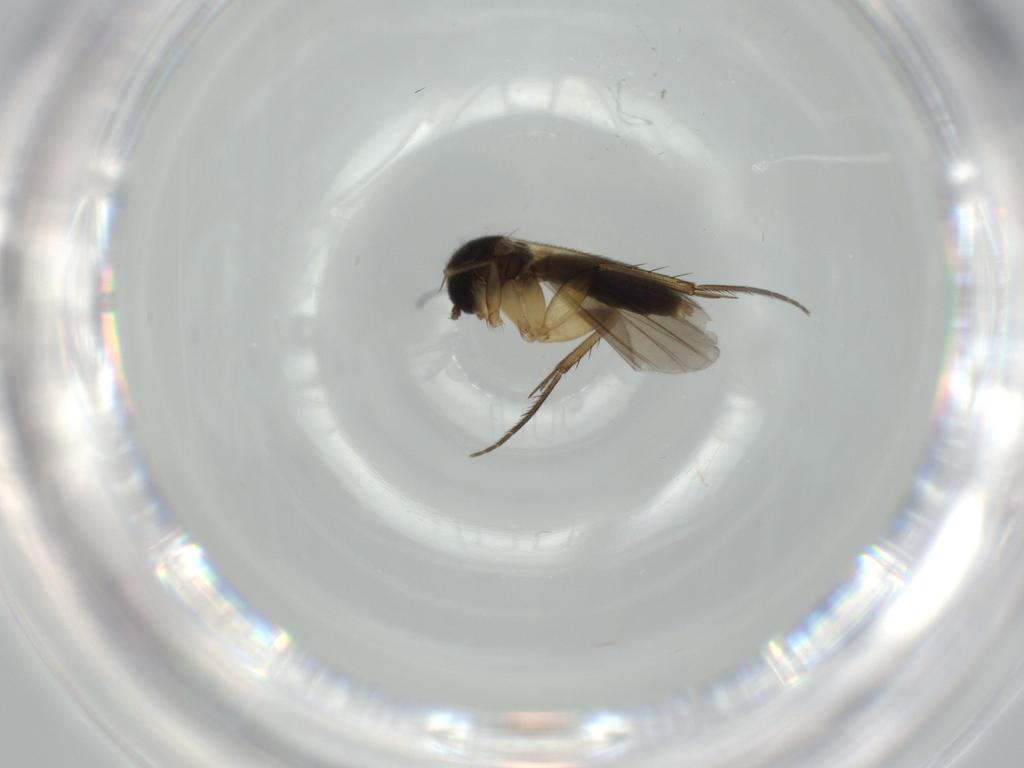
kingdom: Animalia
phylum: Arthropoda
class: Insecta
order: Diptera
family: Mycetophilidae
